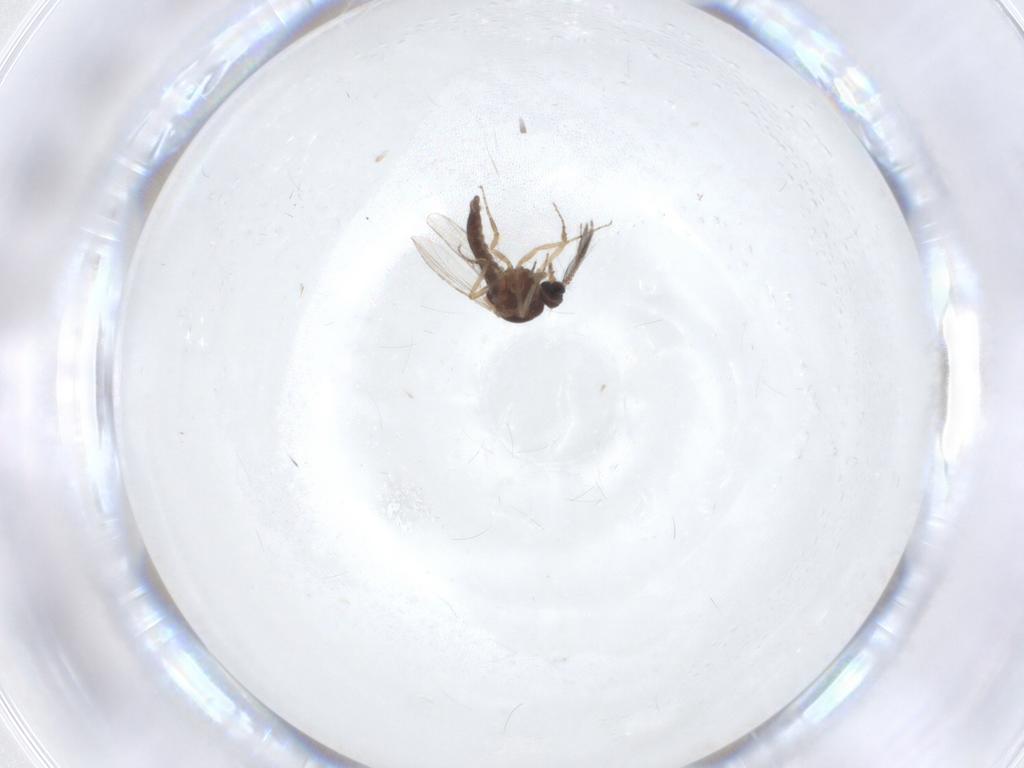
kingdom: Animalia
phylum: Arthropoda
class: Insecta
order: Diptera
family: Ceratopogonidae
